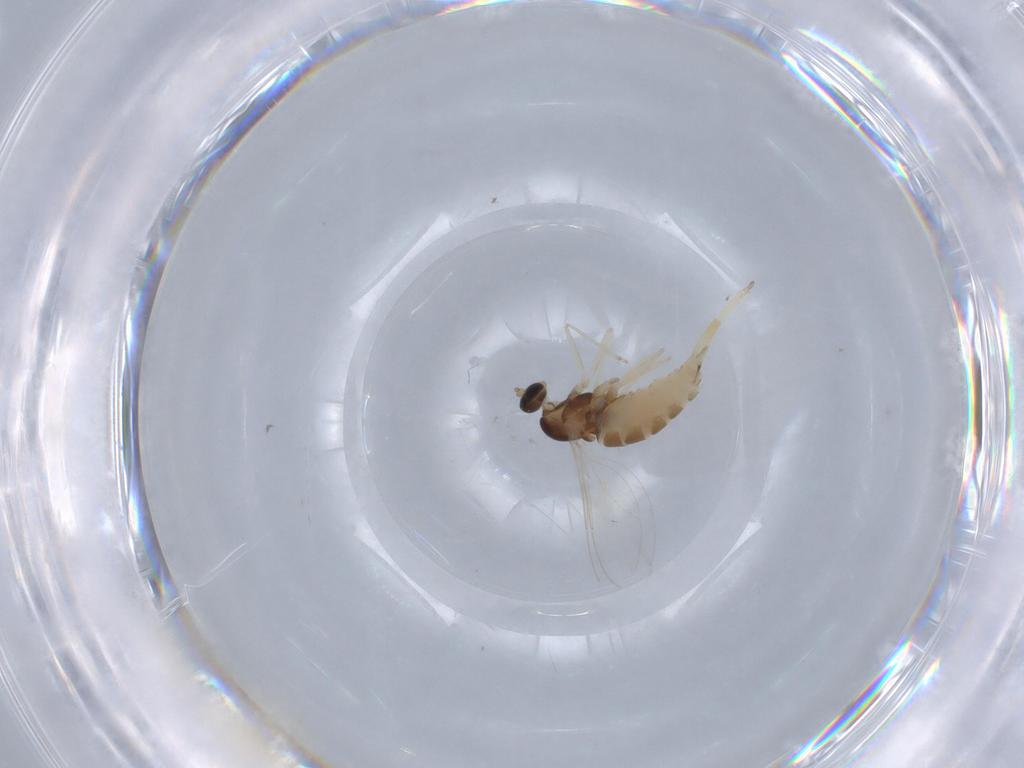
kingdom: Animalia
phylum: Arthropoda
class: Insecta
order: Diptera
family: Cecidomyiidae
